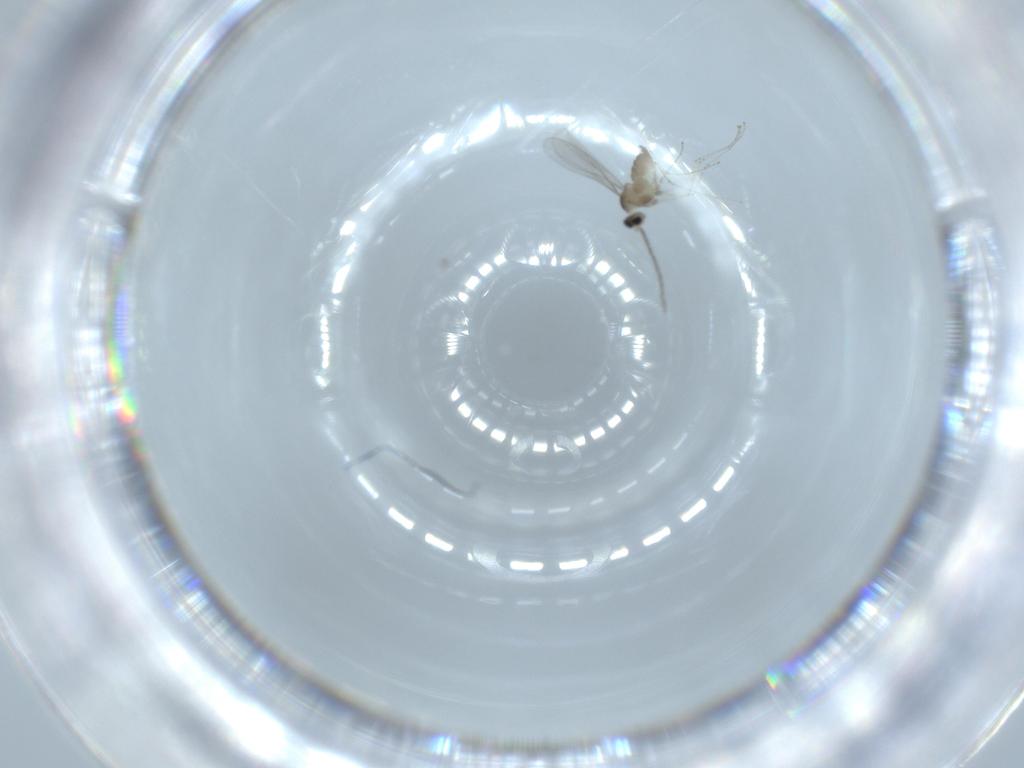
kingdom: Animalia
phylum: Arthropoda
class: Insecta
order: Diptera
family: Cecidomyiidae
